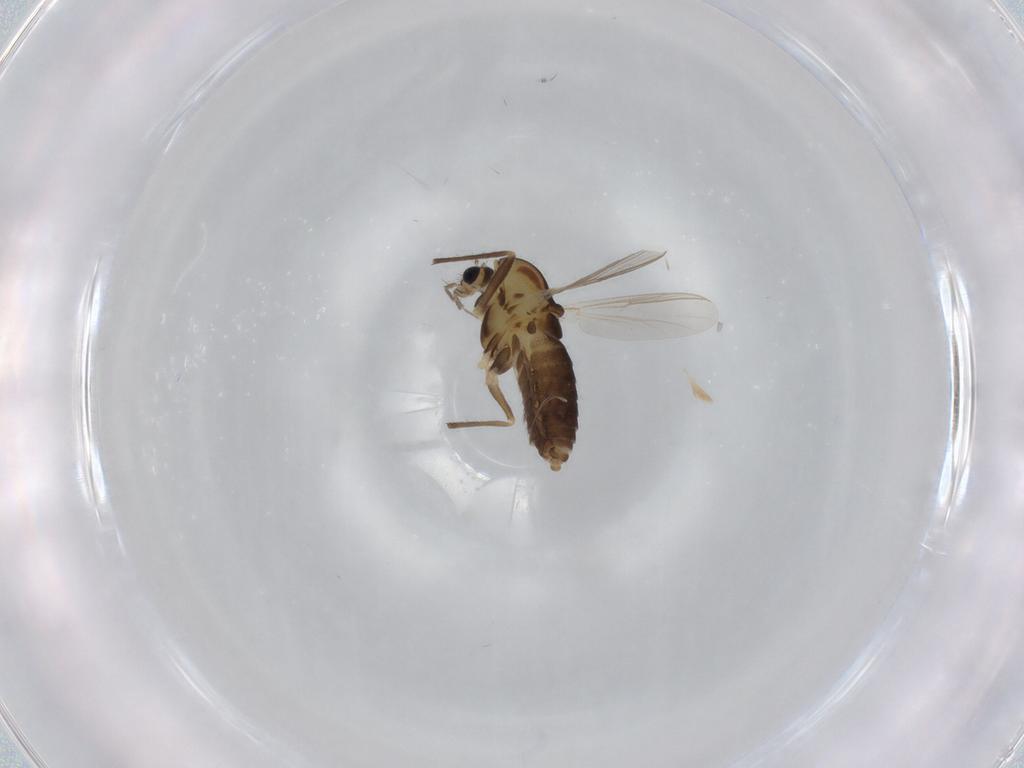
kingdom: Animalia
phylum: Arthropoda
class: Insecta
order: Diptera
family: Chironomidae
